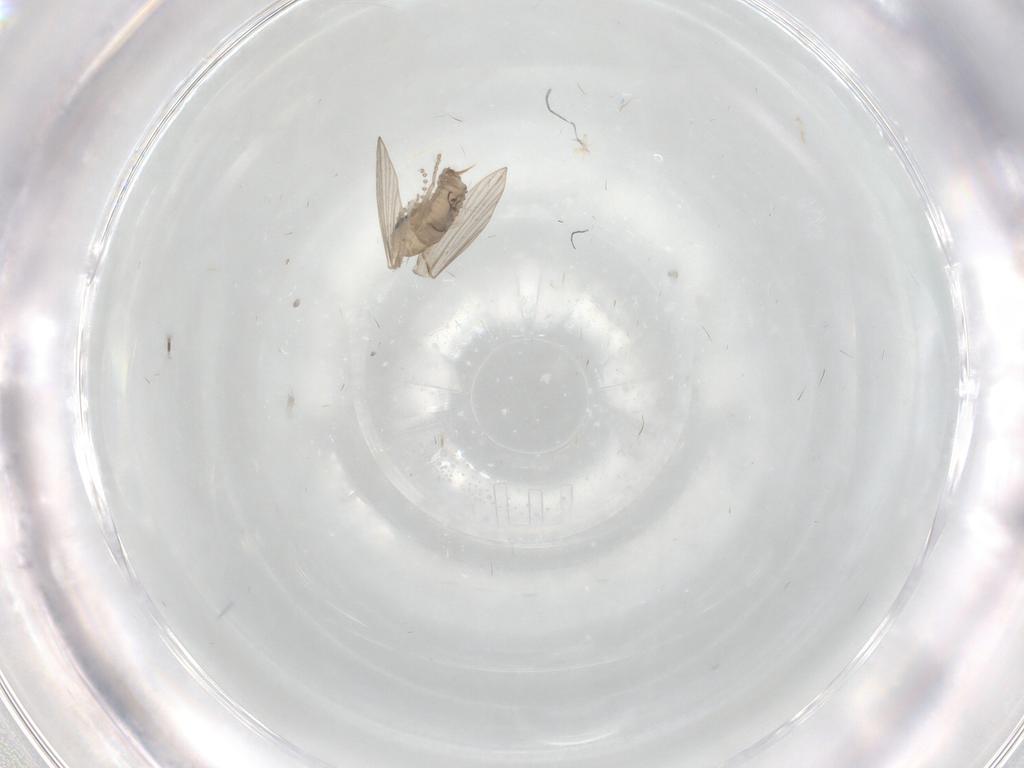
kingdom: Animalia
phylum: Arthropoda
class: Insecta
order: Diptera
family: Psychodidae
